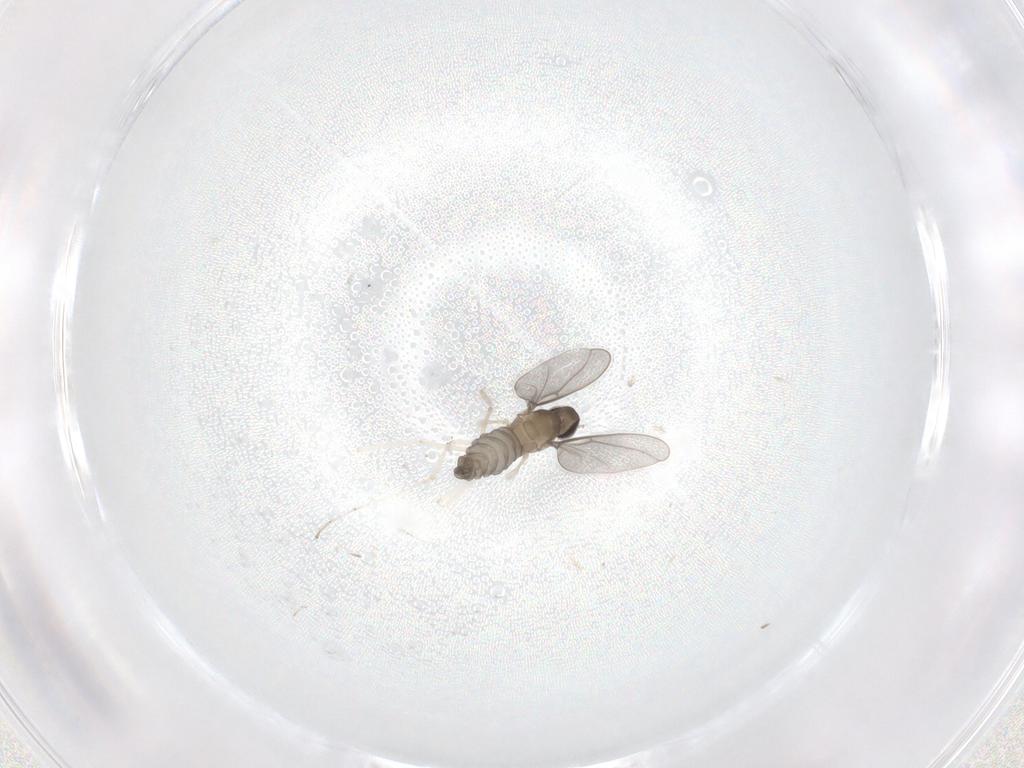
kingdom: Animalia
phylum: Arthropoda
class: Insecta
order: Diptera
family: Cecidomyiidae
